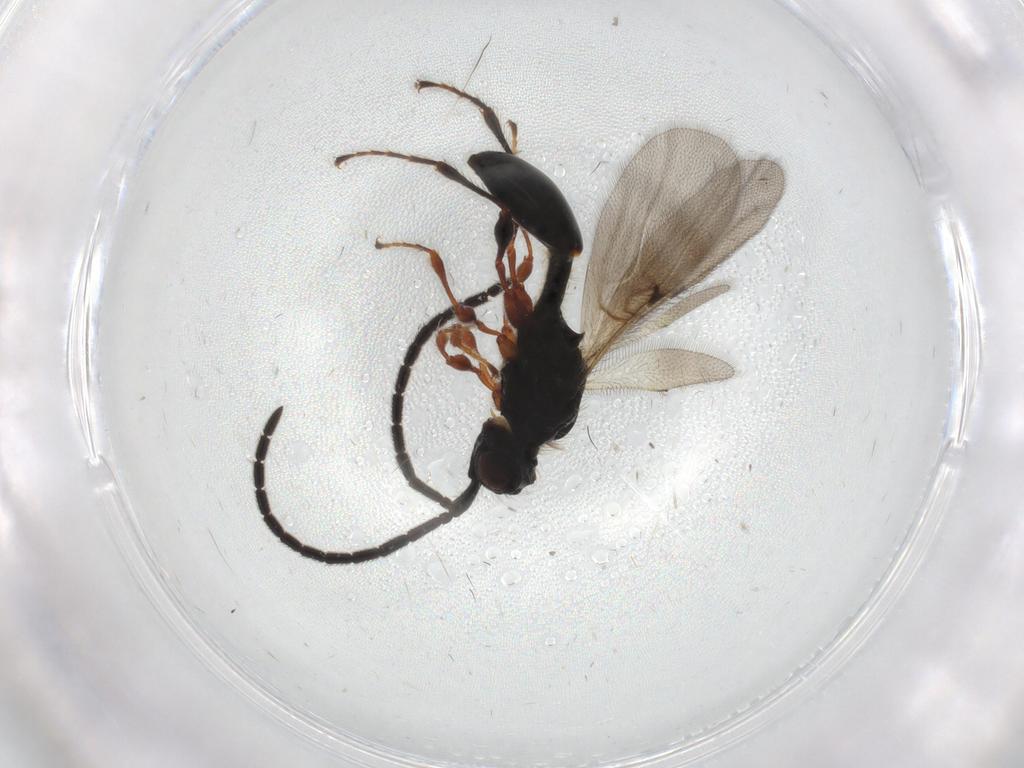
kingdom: Animalia
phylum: Arthropoda
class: Insecta
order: Hymenoptera
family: Diapriidae
